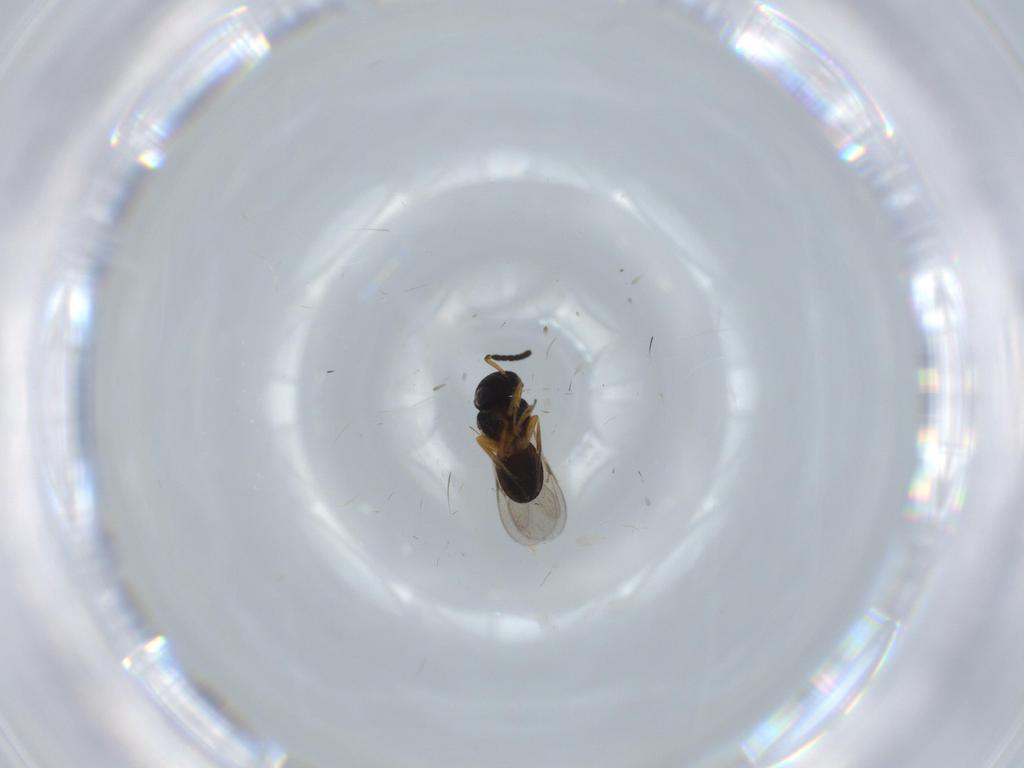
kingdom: Animalia
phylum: Arthropoda
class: Insecta
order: Hymenoptera
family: Scelionidae
